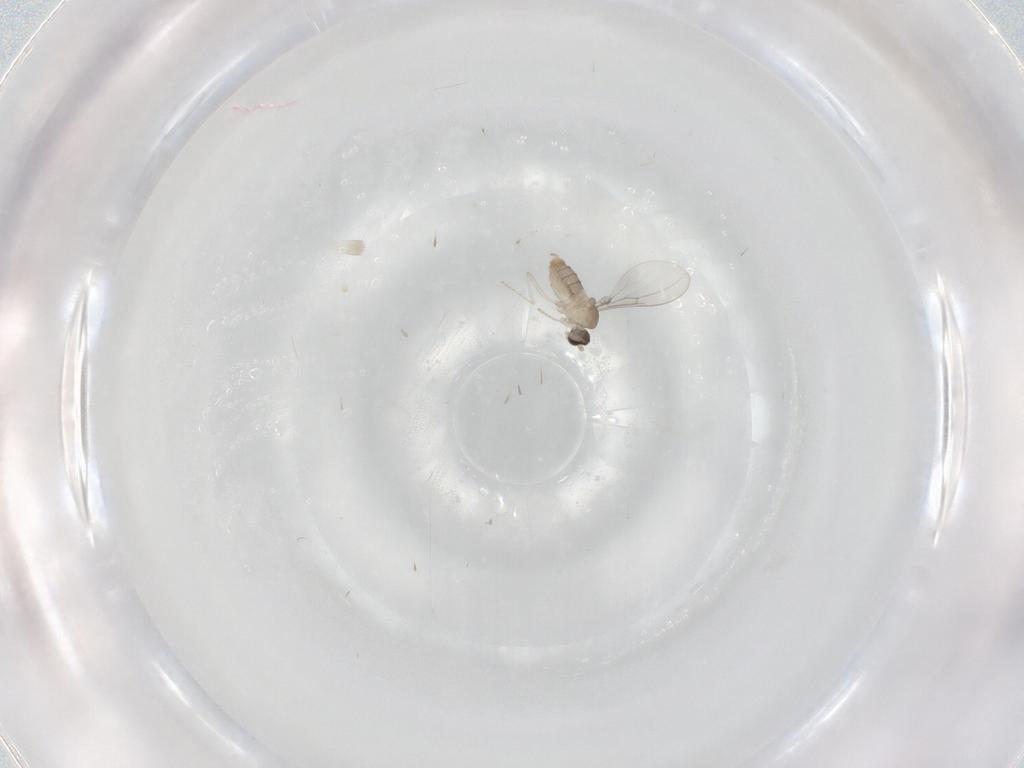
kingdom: Animalia
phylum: Arthropoda
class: Insecta
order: Diptera
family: Cecidomyiidae
